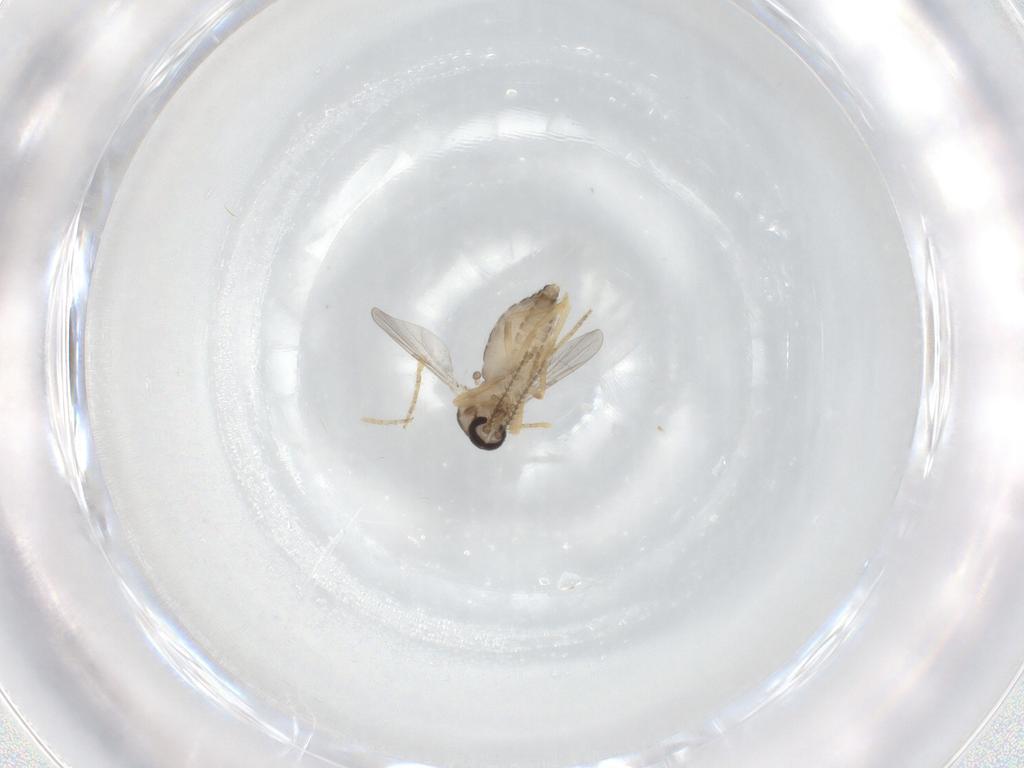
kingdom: Animalia
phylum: Arthropoda
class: Insecta
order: Diptera
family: Ceratopogonidae
